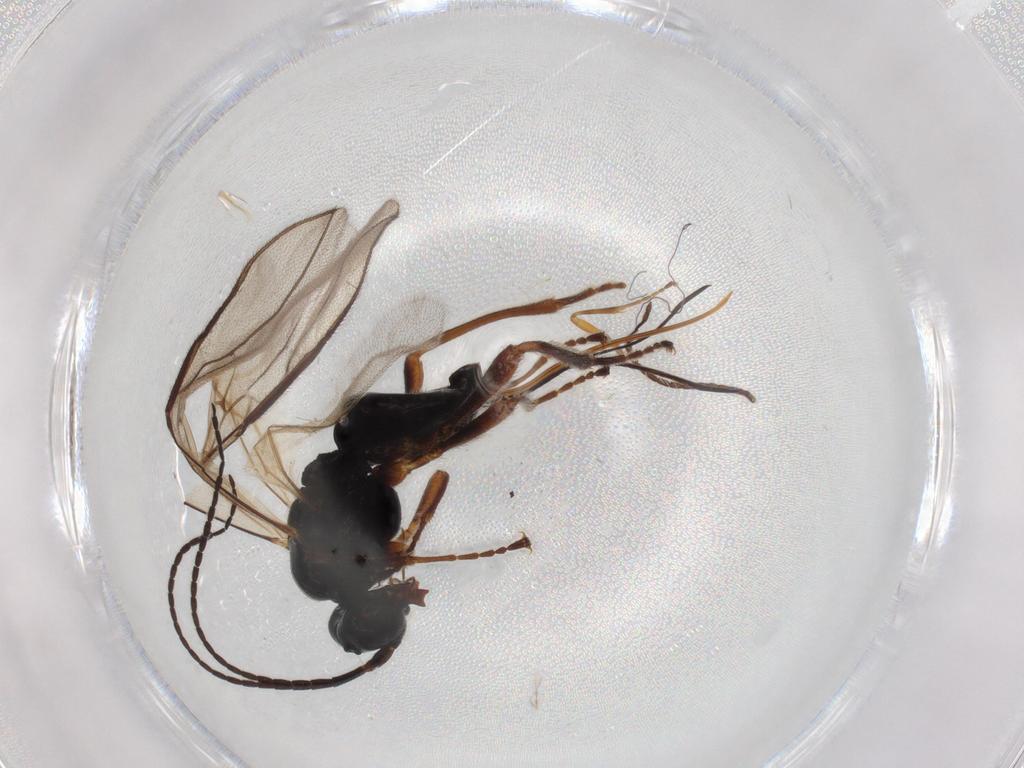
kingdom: Animalia
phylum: Arthropoda
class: Insecta
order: Hymenoptera
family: Braconidae
